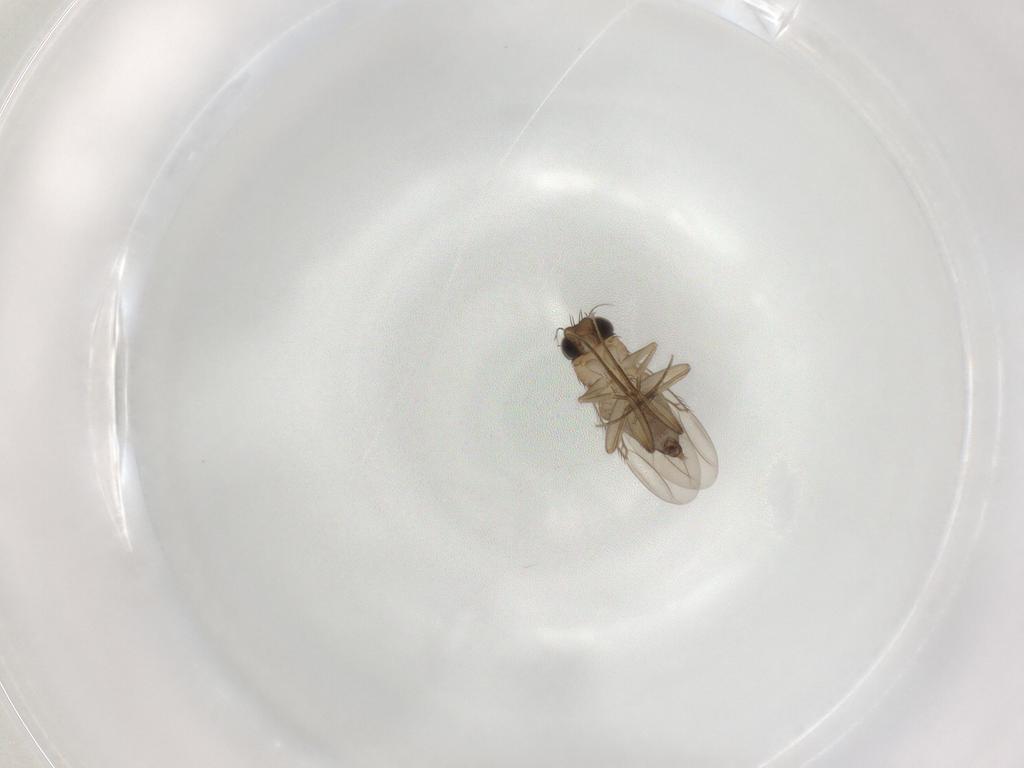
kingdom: Animalia
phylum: Arthropoda
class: Insecta
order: Diptera
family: Phoridae
